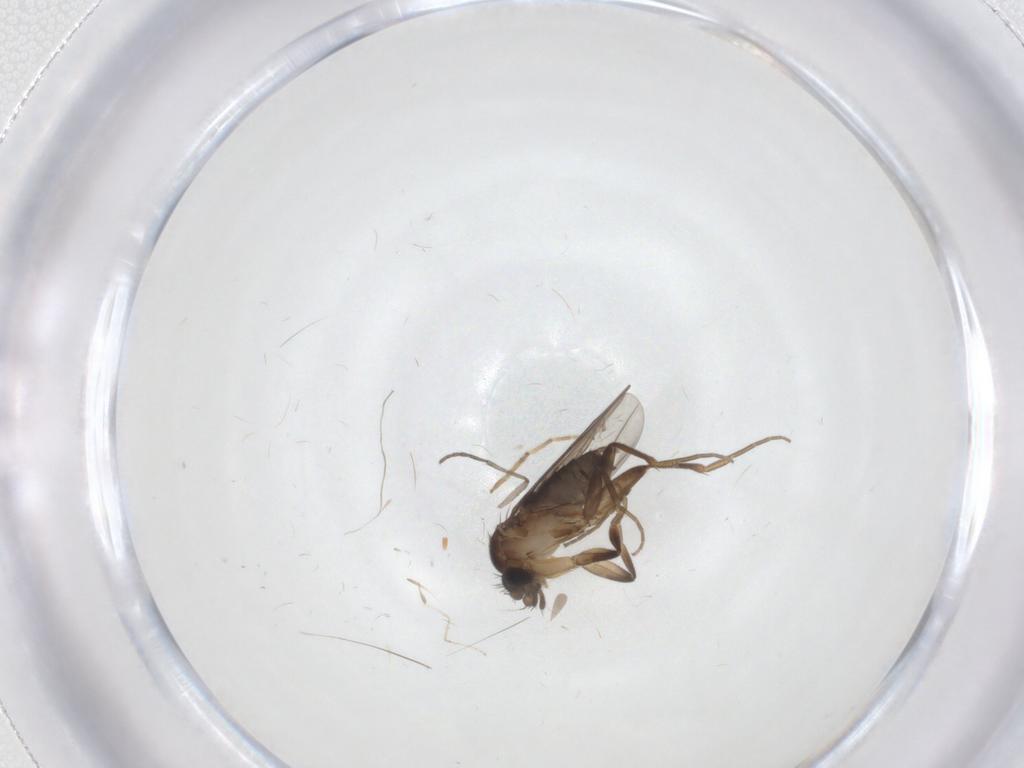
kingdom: Animalia
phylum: Arthropoda
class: Insecta
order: Diptera
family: Phoridae
